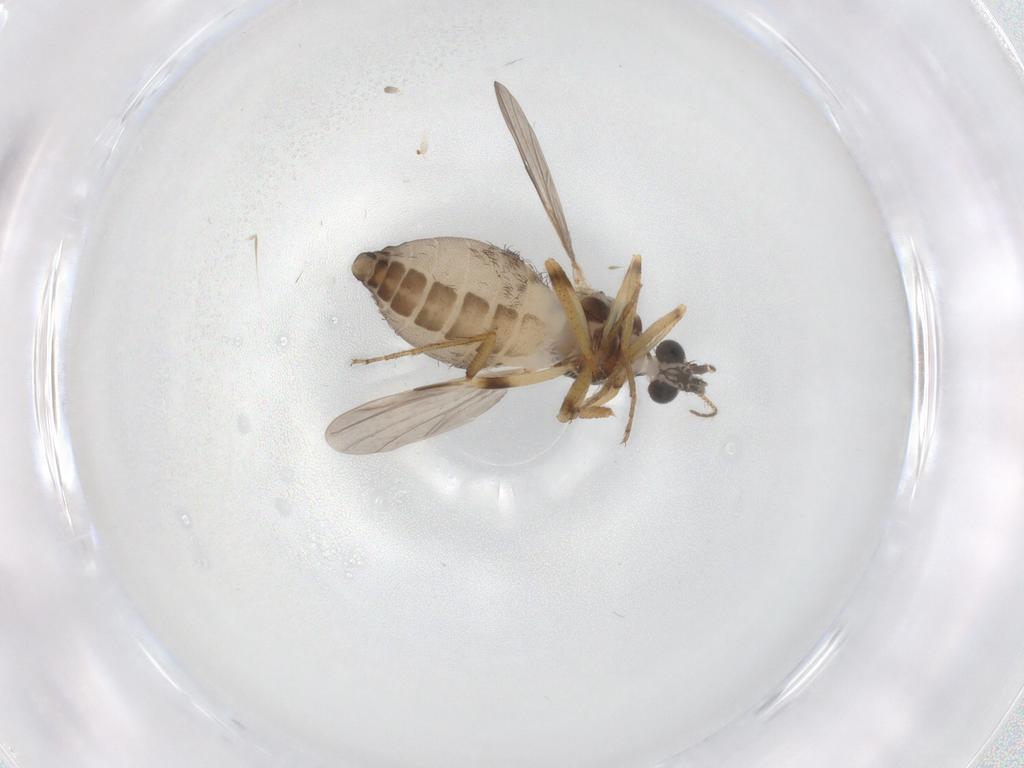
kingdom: Animalia
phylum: Arthropoda
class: Insecta
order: Diptera
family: Ceratopogonidae
